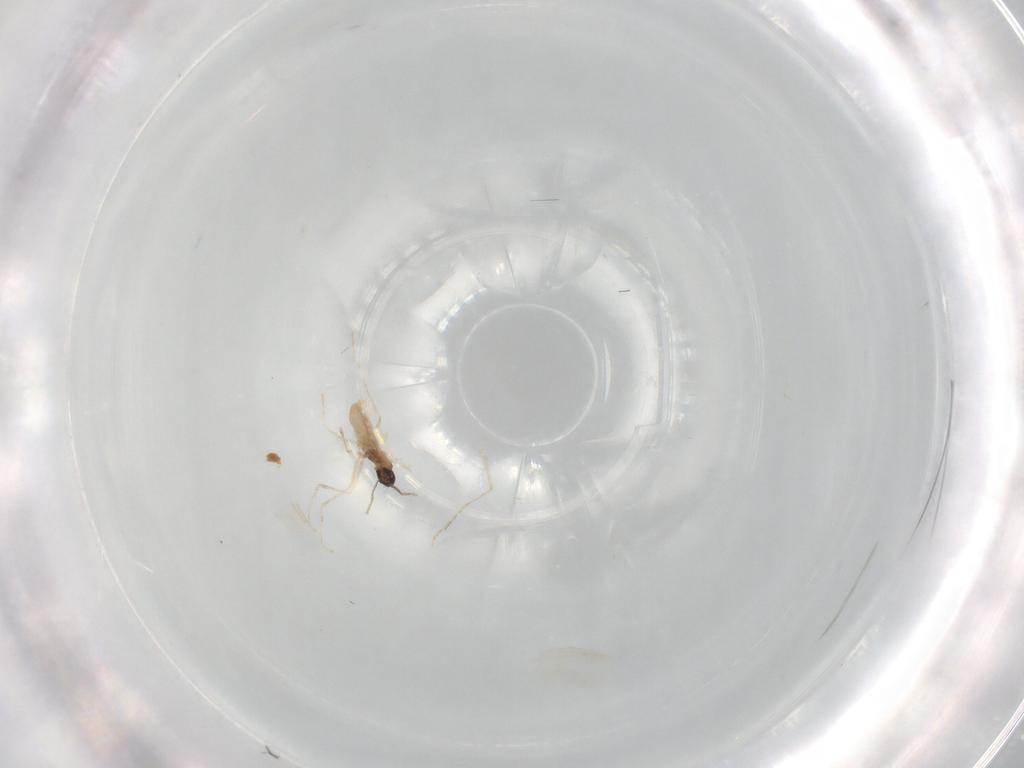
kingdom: Animalia
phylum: Arthropoda
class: Insecta
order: Diptera
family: Cecidomyiidae
